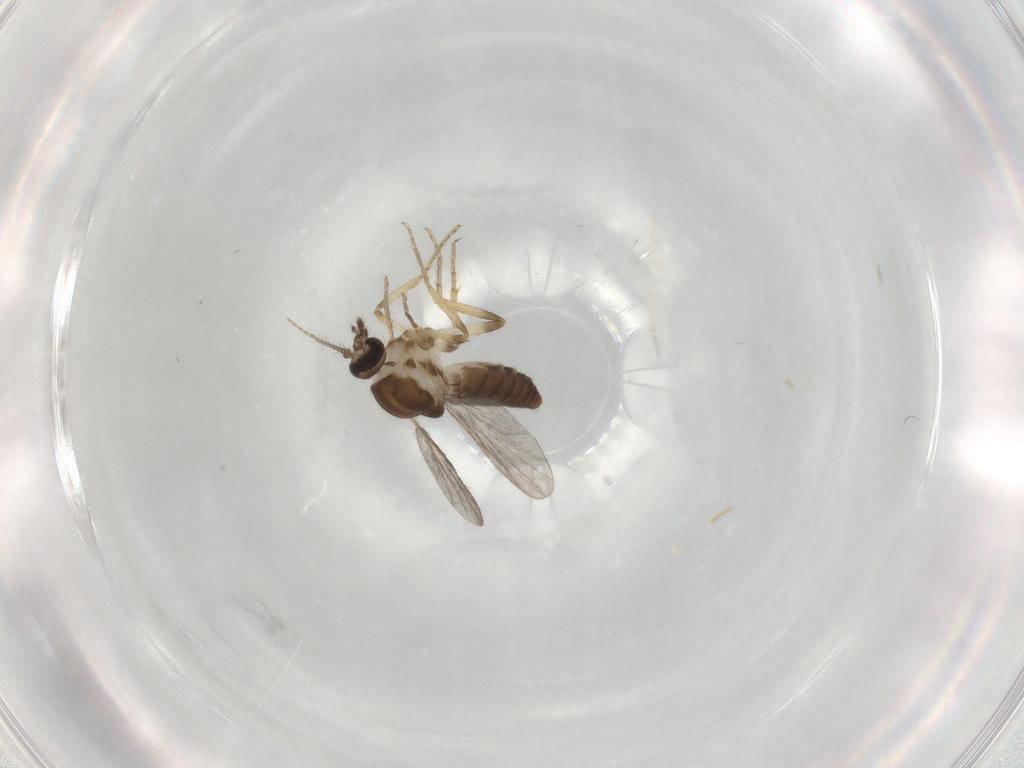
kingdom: Animalia
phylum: Arthropoda
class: Insecta
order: Diptera
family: Ceratopogonidae
